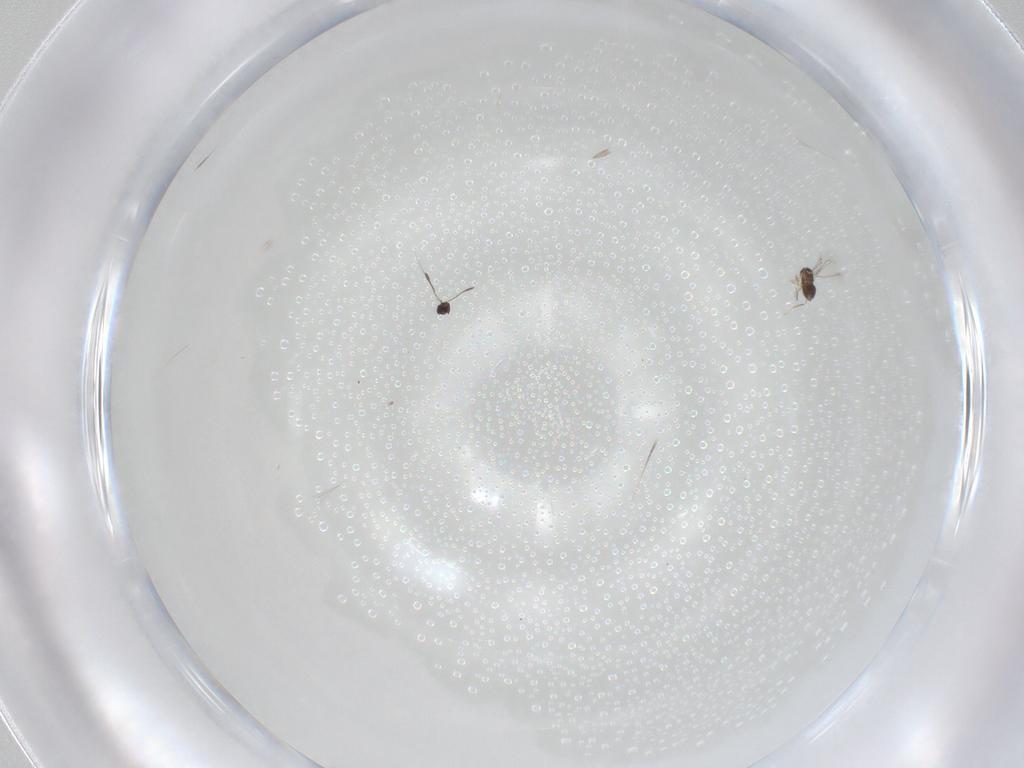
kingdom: Animalia
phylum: Arthropoda
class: Insecta
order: Hymenoptera
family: Mymaridae
